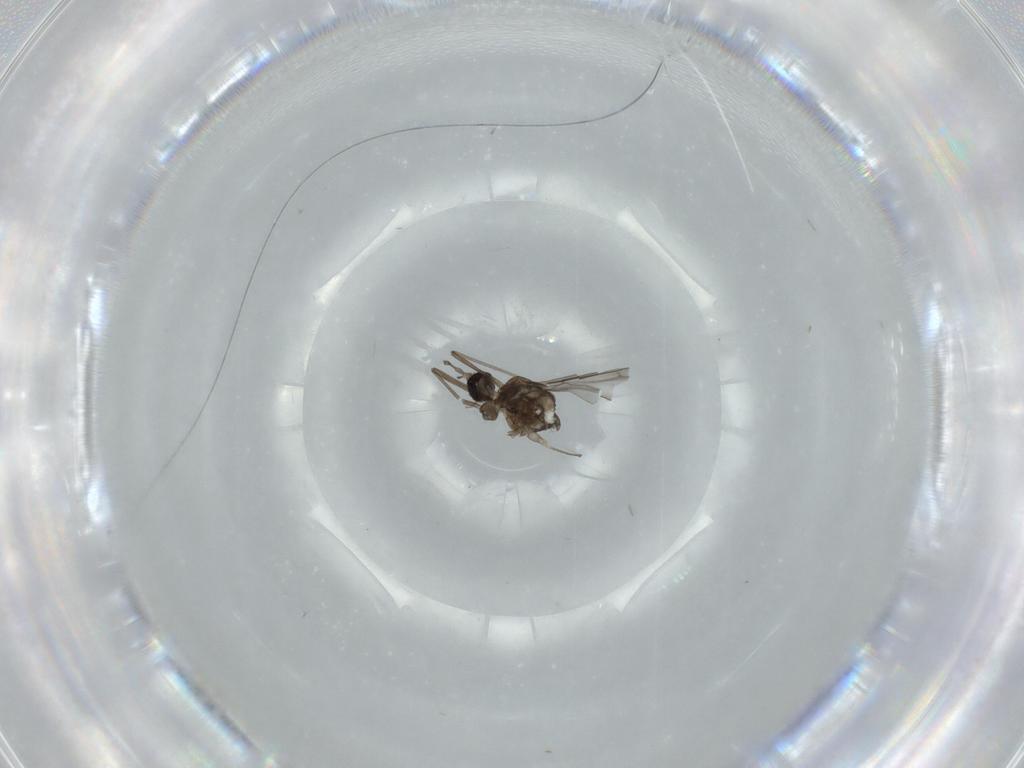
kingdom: Animalia
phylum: Arthropoda
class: Insecta
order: Diptera
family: Cecidomyiidae
